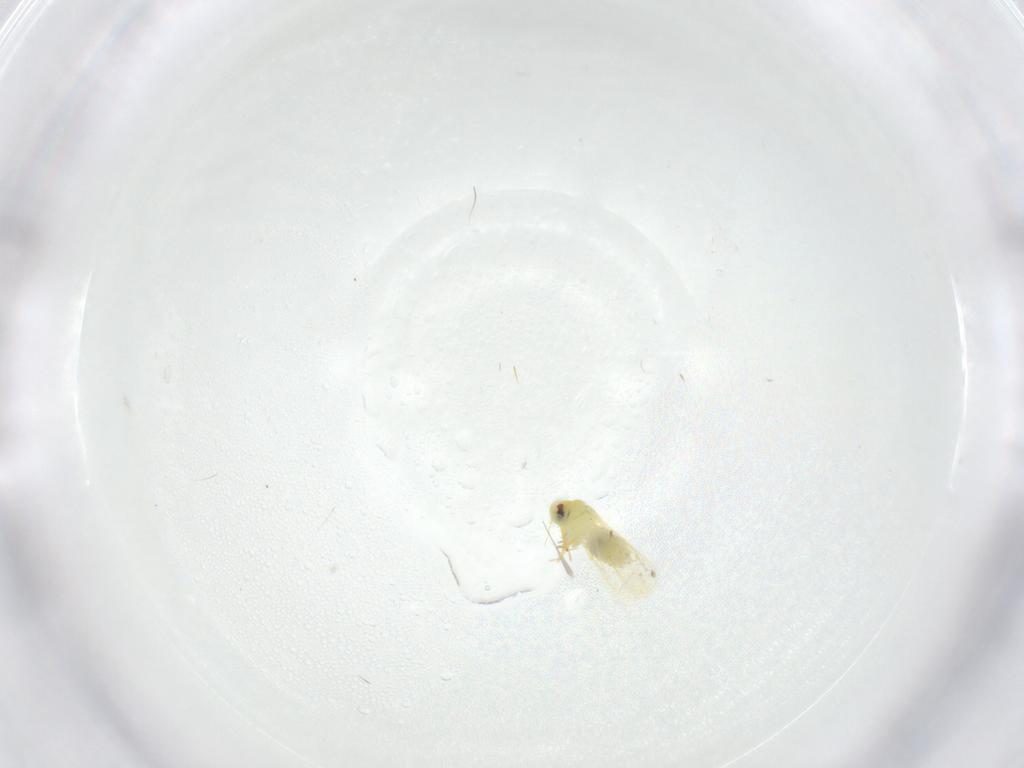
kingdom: Animalia
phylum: Arthropoda
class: Insecta
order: Hemiptera
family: Aleyrodidae
